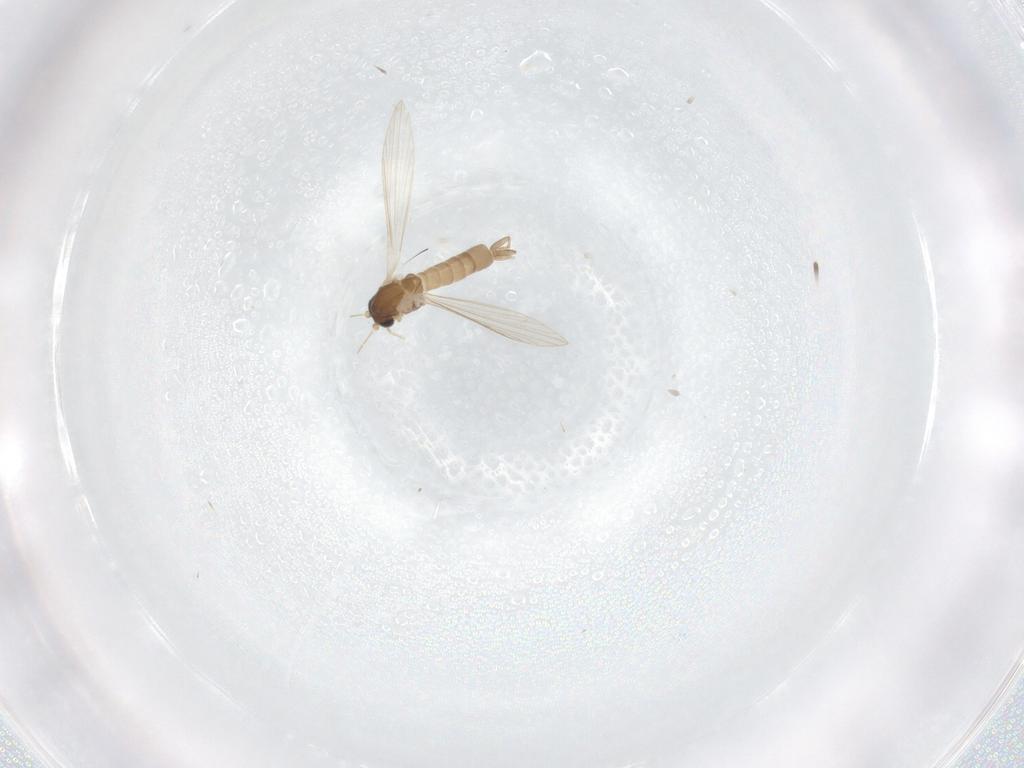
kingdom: Animalia
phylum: Arthropoda
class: Insecta
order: Diptera
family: Psychodidae
